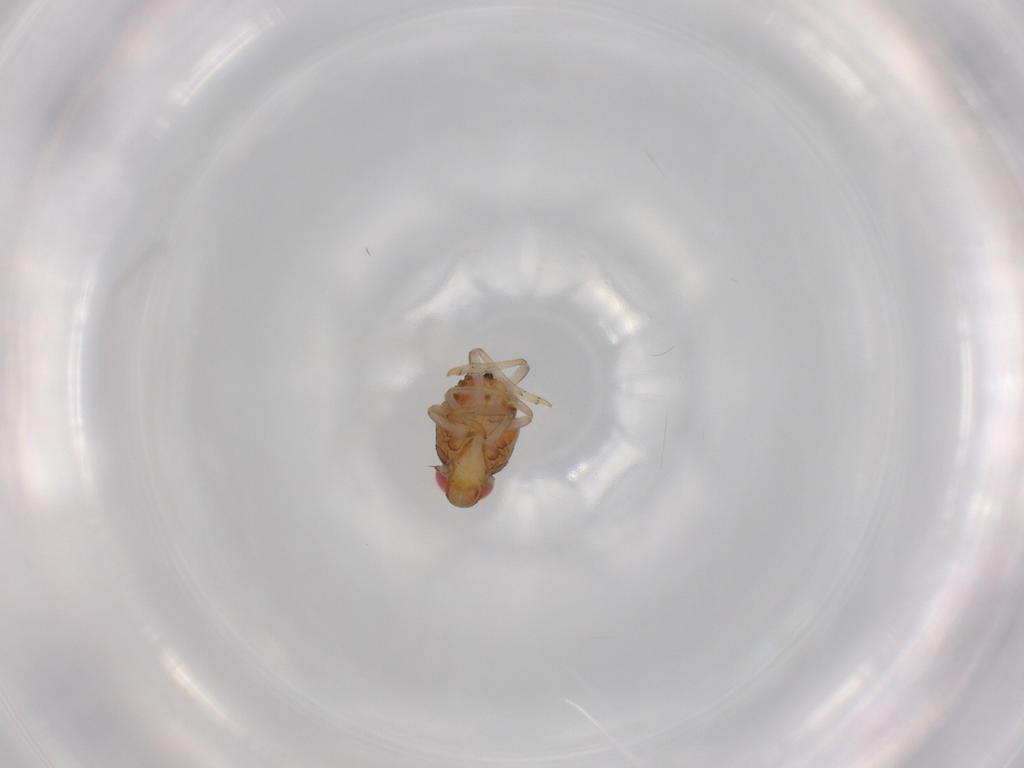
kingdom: Animalia
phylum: Arthropoda
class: Insecta
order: Hemiptera
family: Issidae
